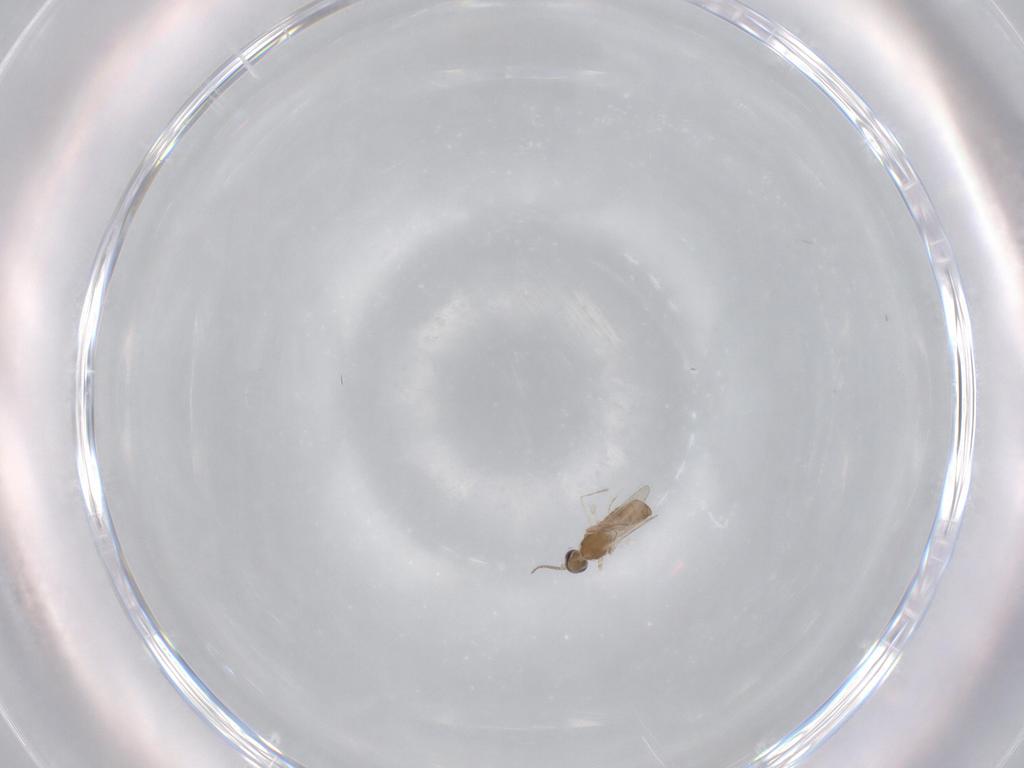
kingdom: Animalia
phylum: Arthropoda
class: Insecta
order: Diptera
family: Cecidomyiidae
